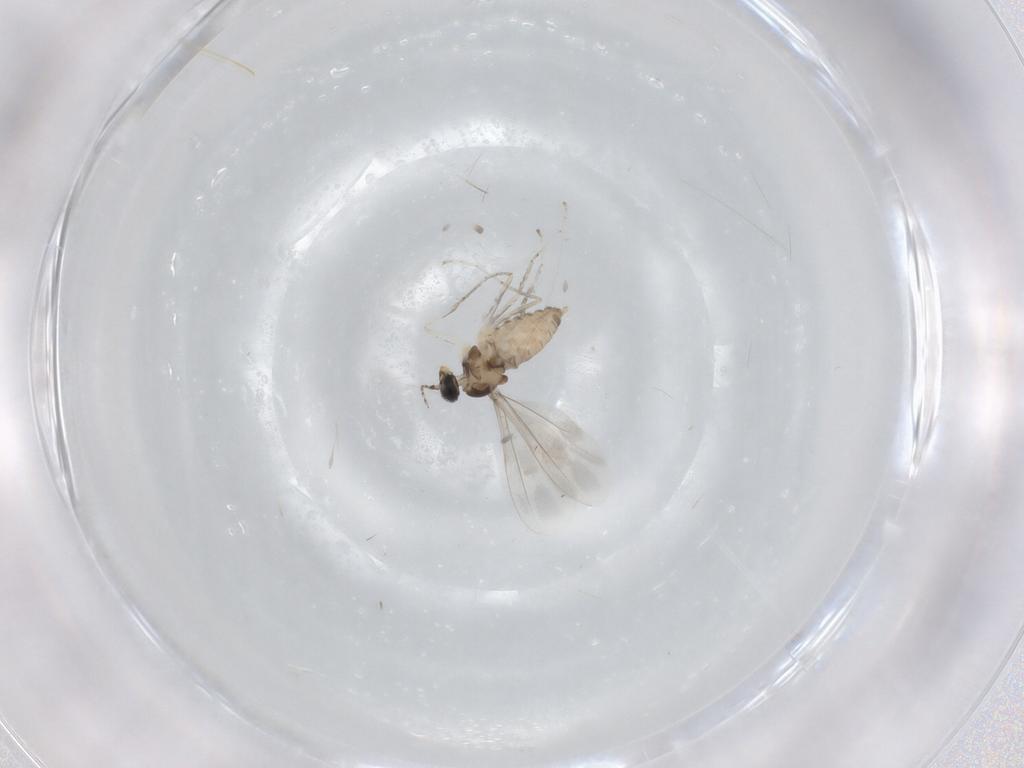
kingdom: Animalia
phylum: Arthropoda
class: Insecta
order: Diptera
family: Cecidomyiidae
